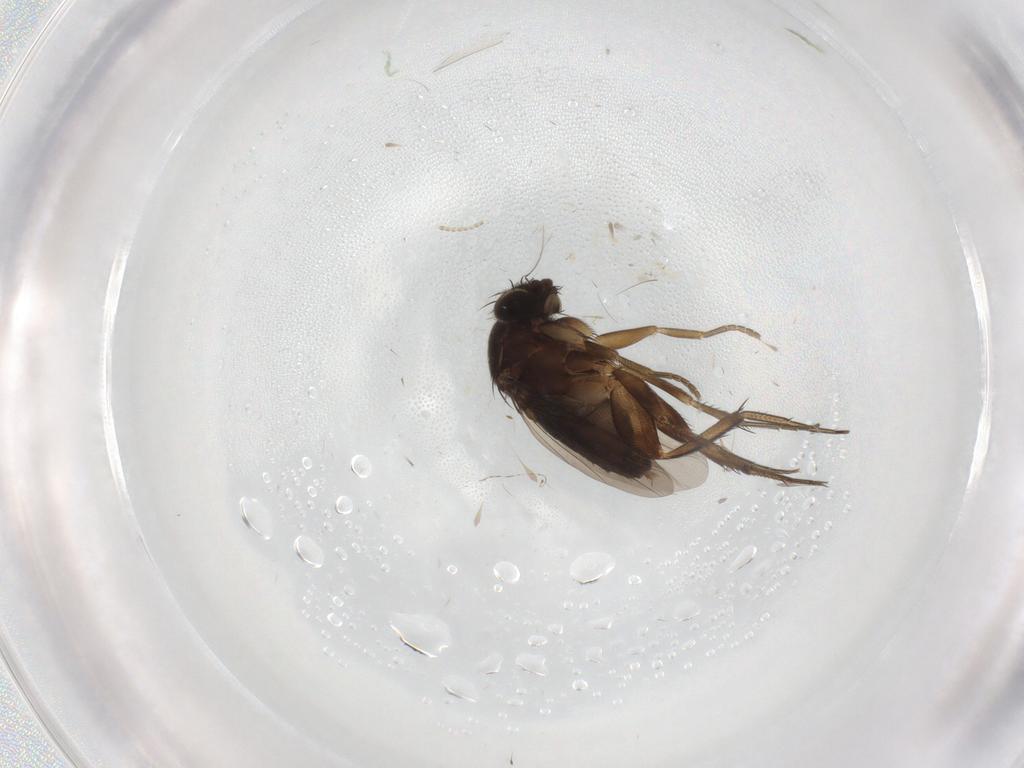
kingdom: Animalia
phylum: Arthropoda
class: Insecta
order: Diptera
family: Phoridae
